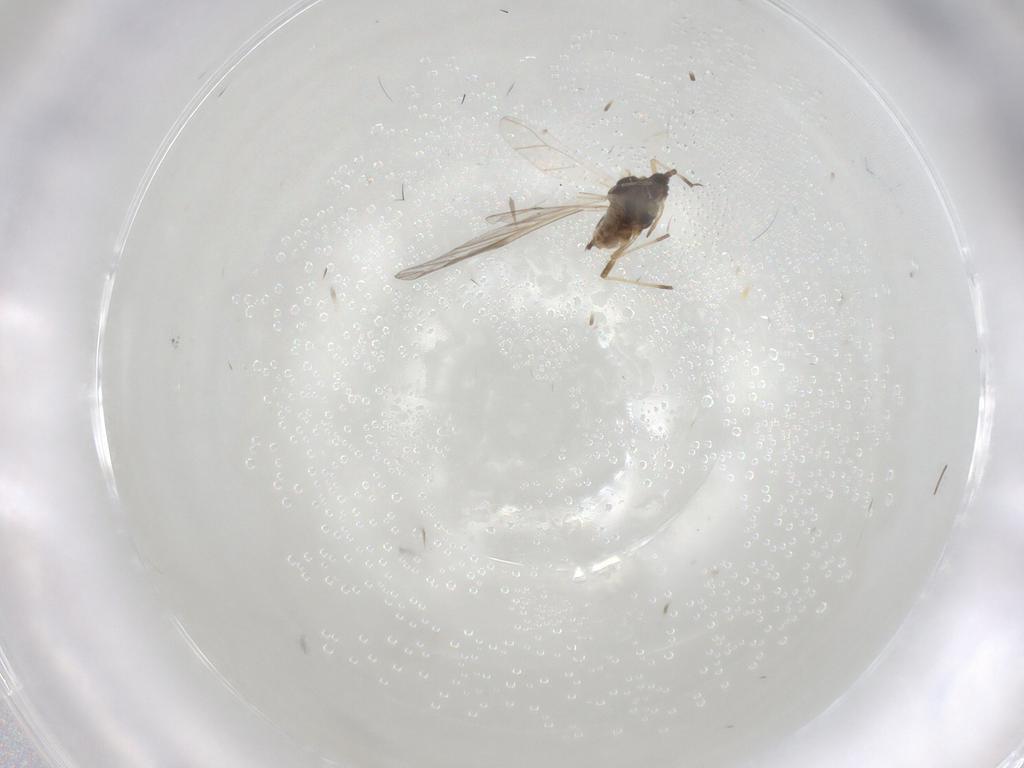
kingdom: Animalia
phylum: Arthropoda
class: Insecta
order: Hemiptera
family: Aphididae
